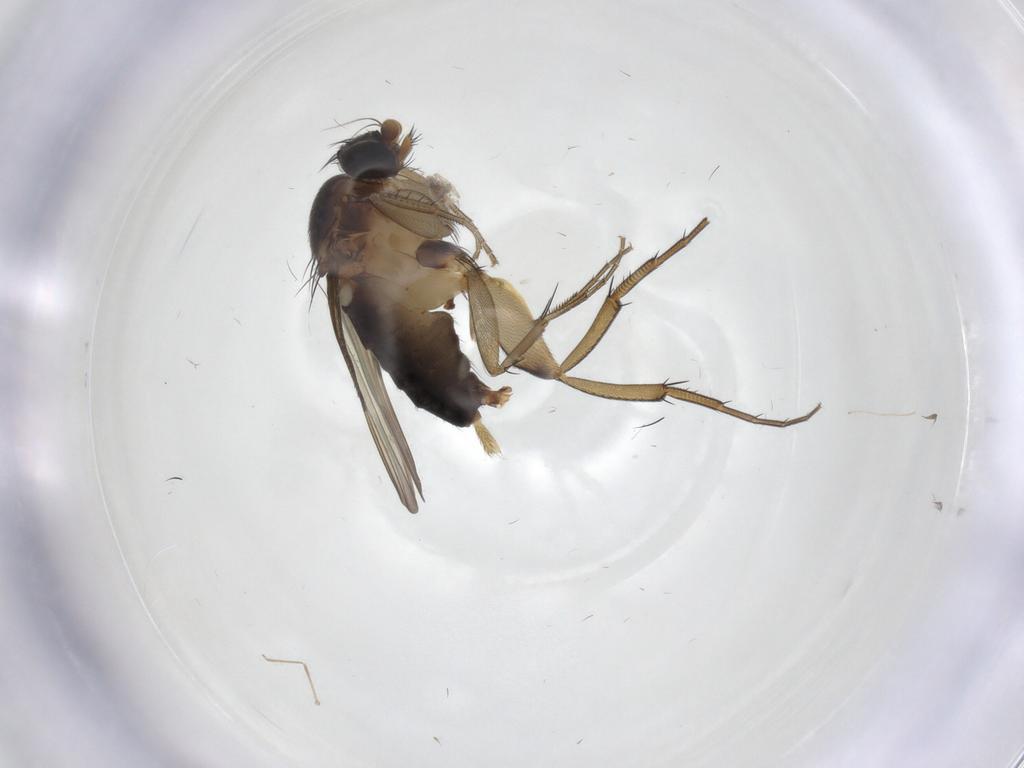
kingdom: Animalia
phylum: Arthropoda
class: Insecta
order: Diptera
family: Phoridae
